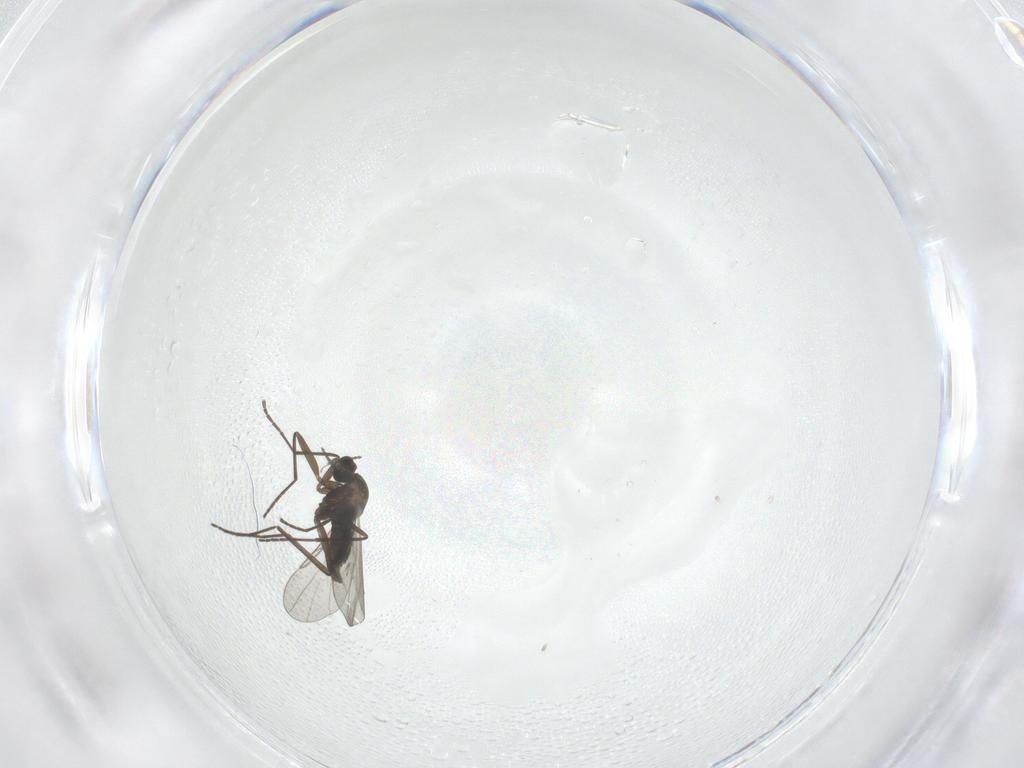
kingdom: Animalia
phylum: Arthropoda
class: Insecta
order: Diptera
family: Cecidomyiidae
